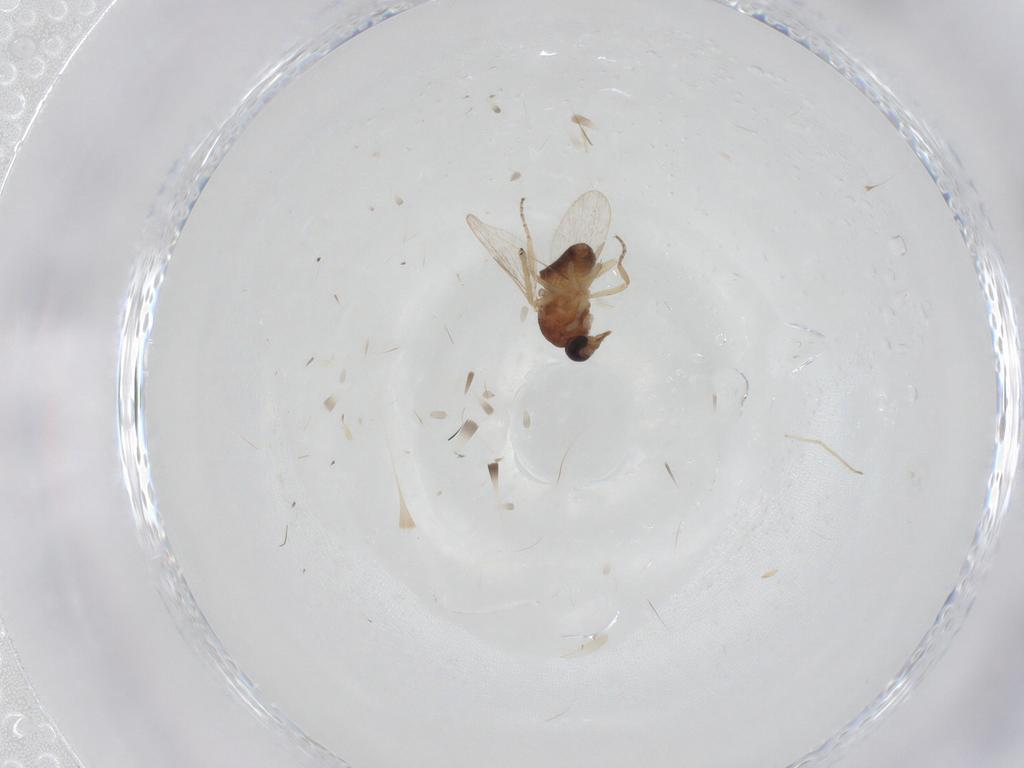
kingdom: Animalia
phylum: Arthropoda
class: Insecta
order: Diptera
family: Ceratopogonidae
